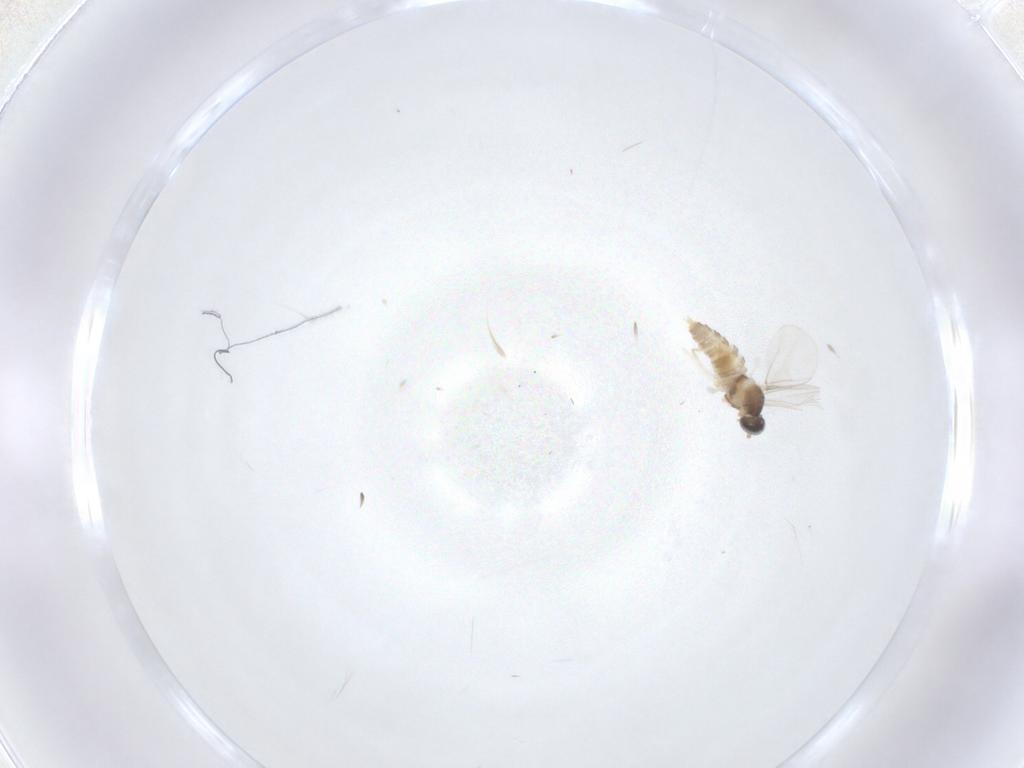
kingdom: Animalia
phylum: Arthropoda
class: Insecta
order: Diptera
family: Cecidomyiidae
